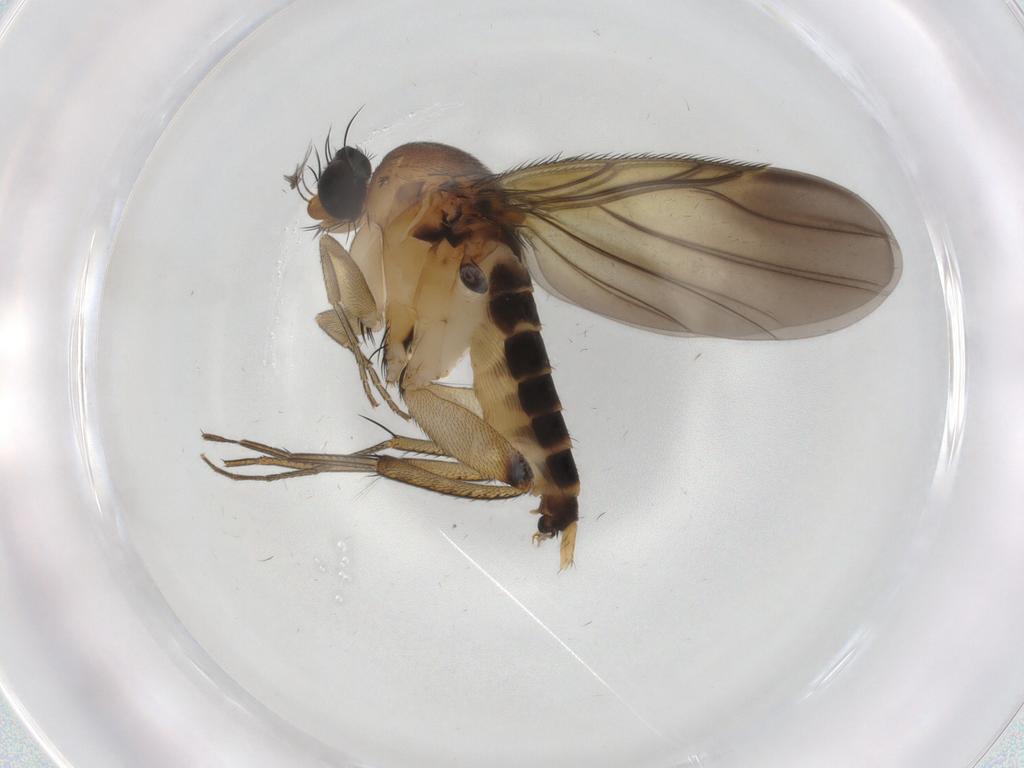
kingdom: Animalia
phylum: Arthropoda
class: Insecta
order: Diptera
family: Phoridae
